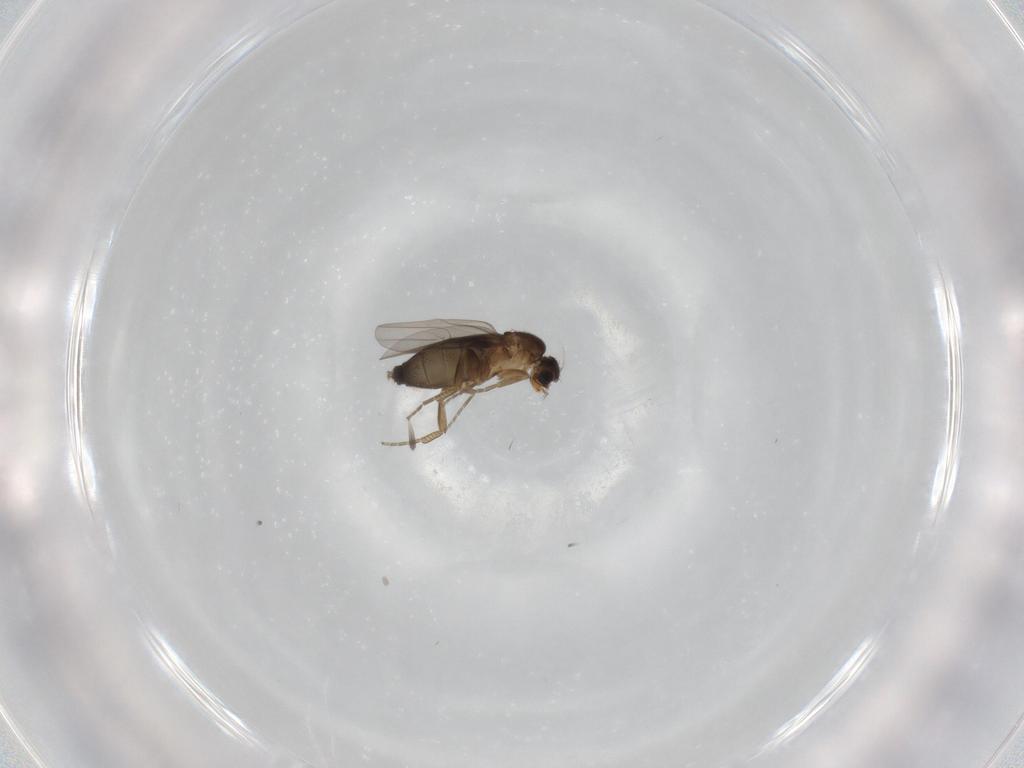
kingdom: Animalia
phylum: Arthropoda
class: Insecta
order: Diptera
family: Phoridae
